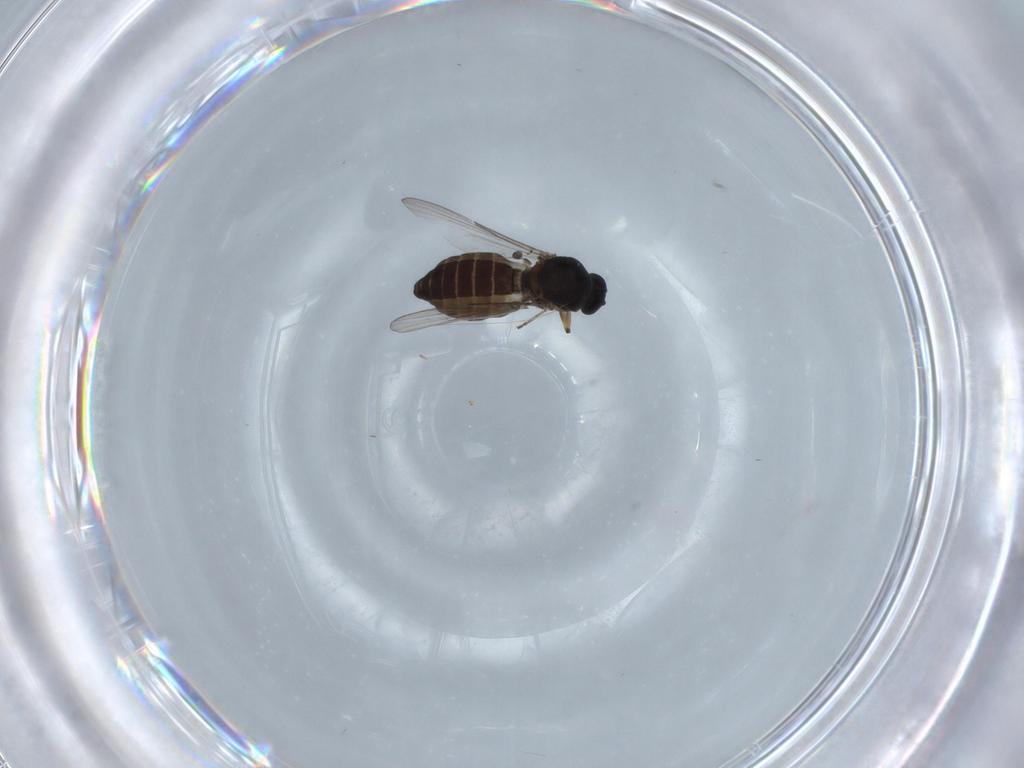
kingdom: Animalia
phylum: Arthropoda
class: Insecta
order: Diptera
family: Ceratopogonidae
